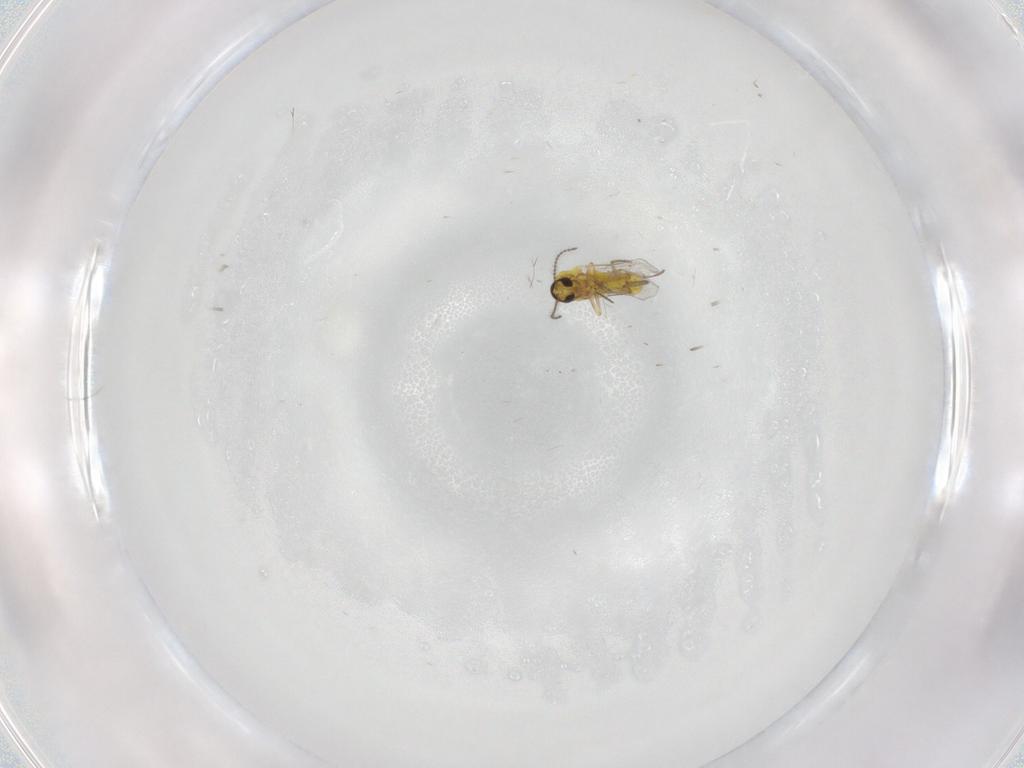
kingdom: Animalia
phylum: Arthropoda
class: Insecta
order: Diptera
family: Ceratopogonidae
